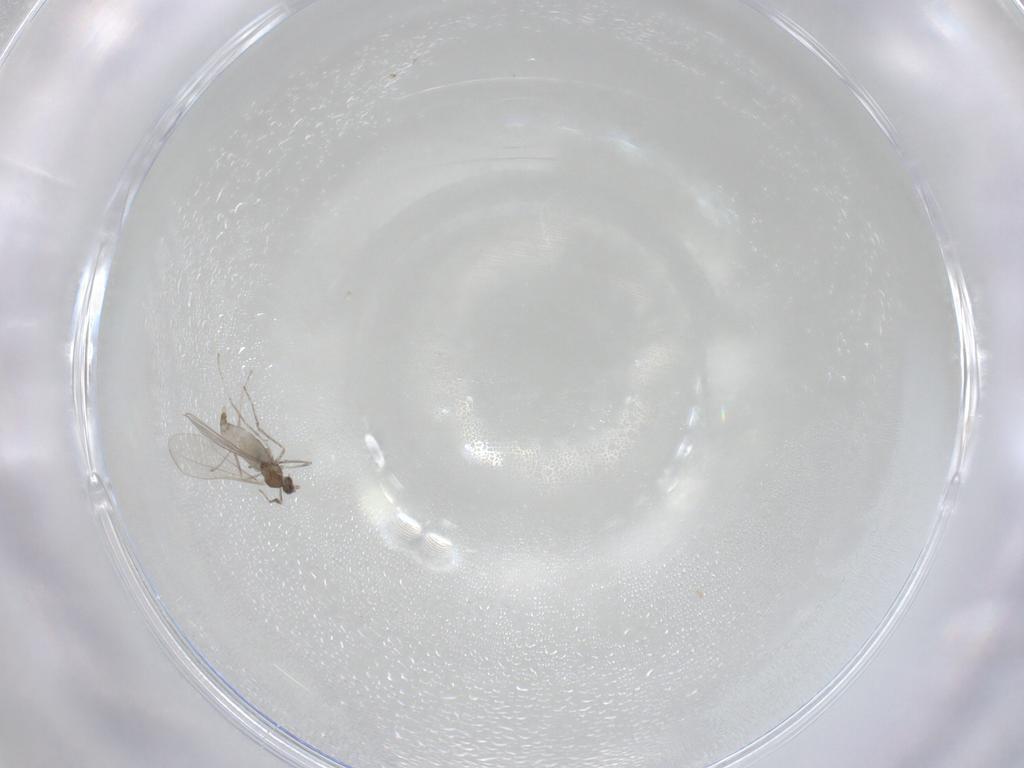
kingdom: Animalia
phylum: Arthropoda
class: Insecta
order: Diptera
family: Cecidomyiidae
